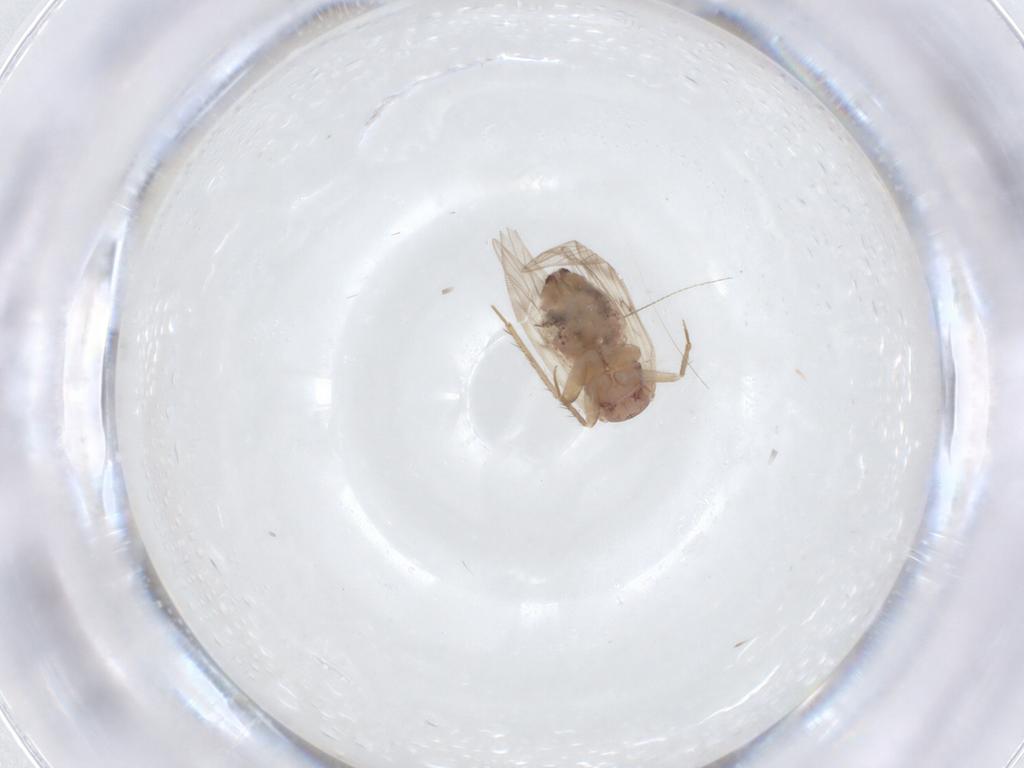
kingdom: Animalia
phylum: Arthropoda
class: Insecta
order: Psocodea
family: Lepidopsocidae
